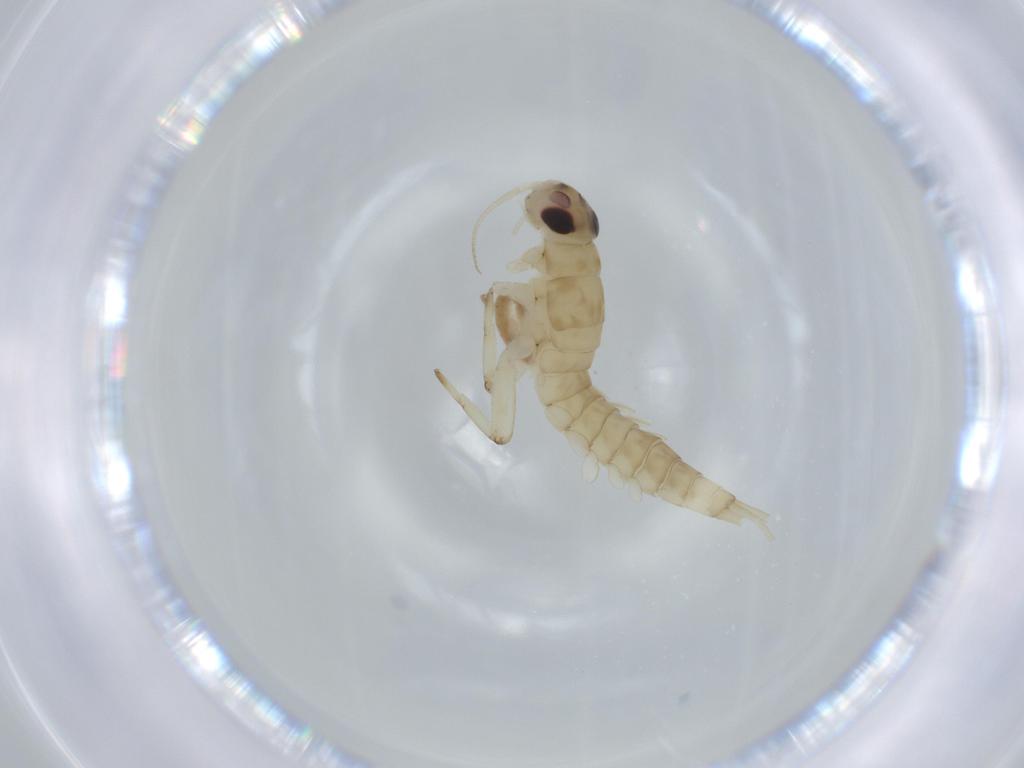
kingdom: Animalia
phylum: Arthropoda
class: Insecta
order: Ephemeroptera
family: Baetidae
